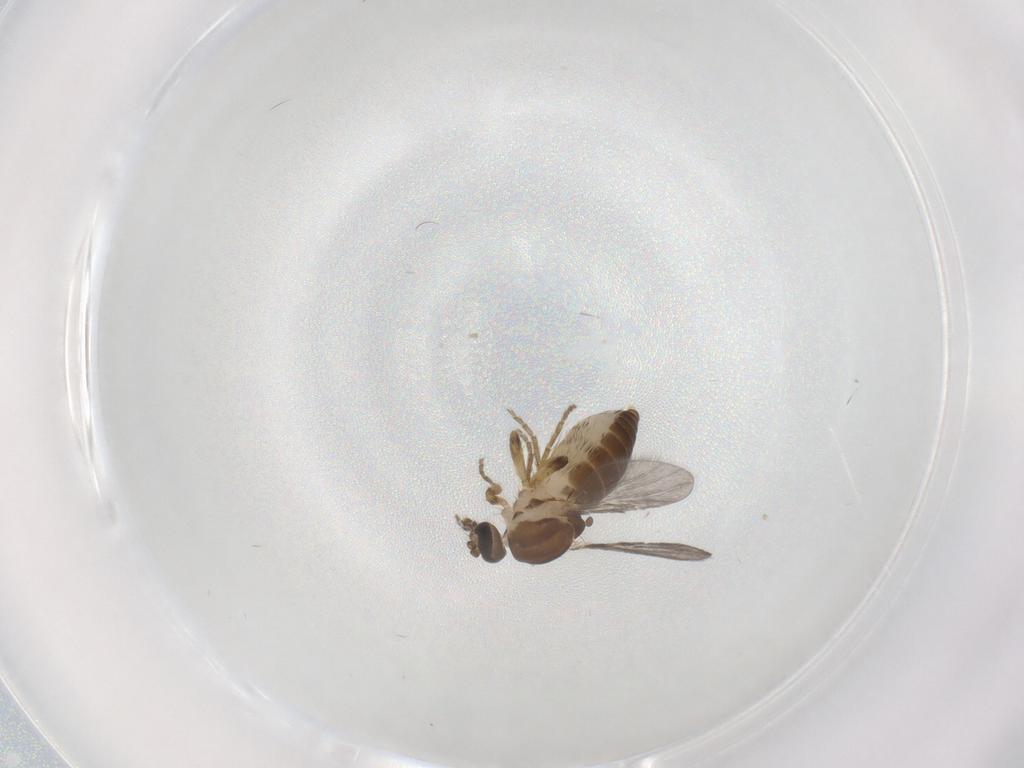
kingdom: Animalia
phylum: Arthropoda
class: Insecta
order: Diptera
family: Ceratopogonidae
